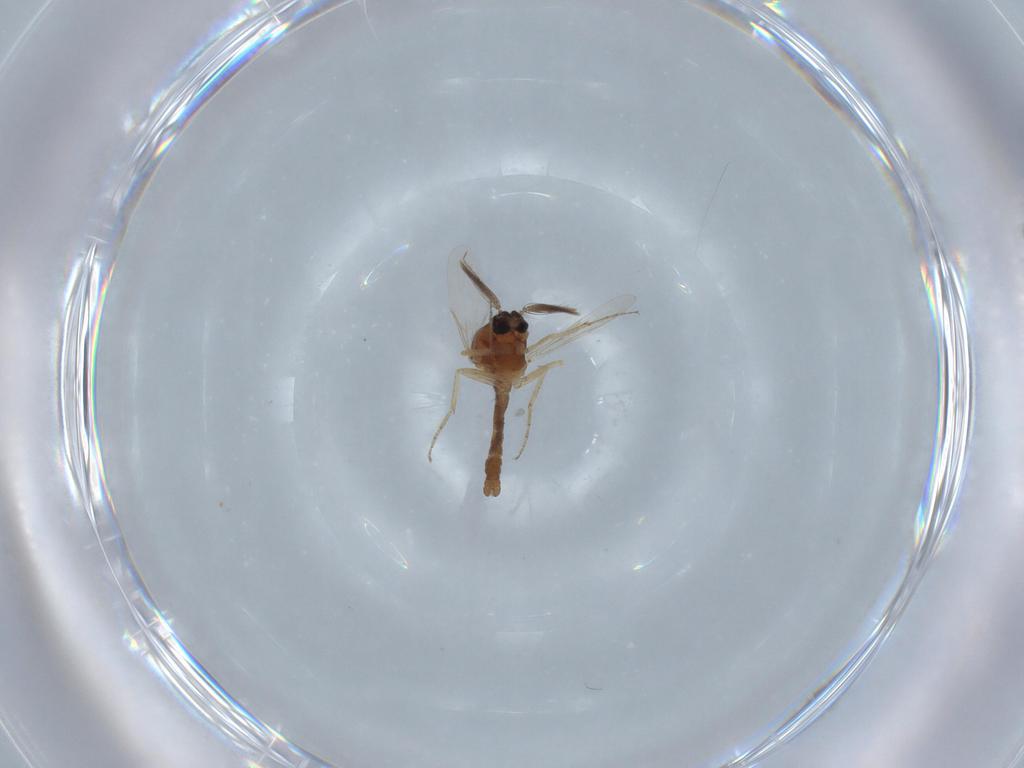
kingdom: Animalia
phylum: Arthropoda
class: Insecta
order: Diptera
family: Ceratopogonidae
